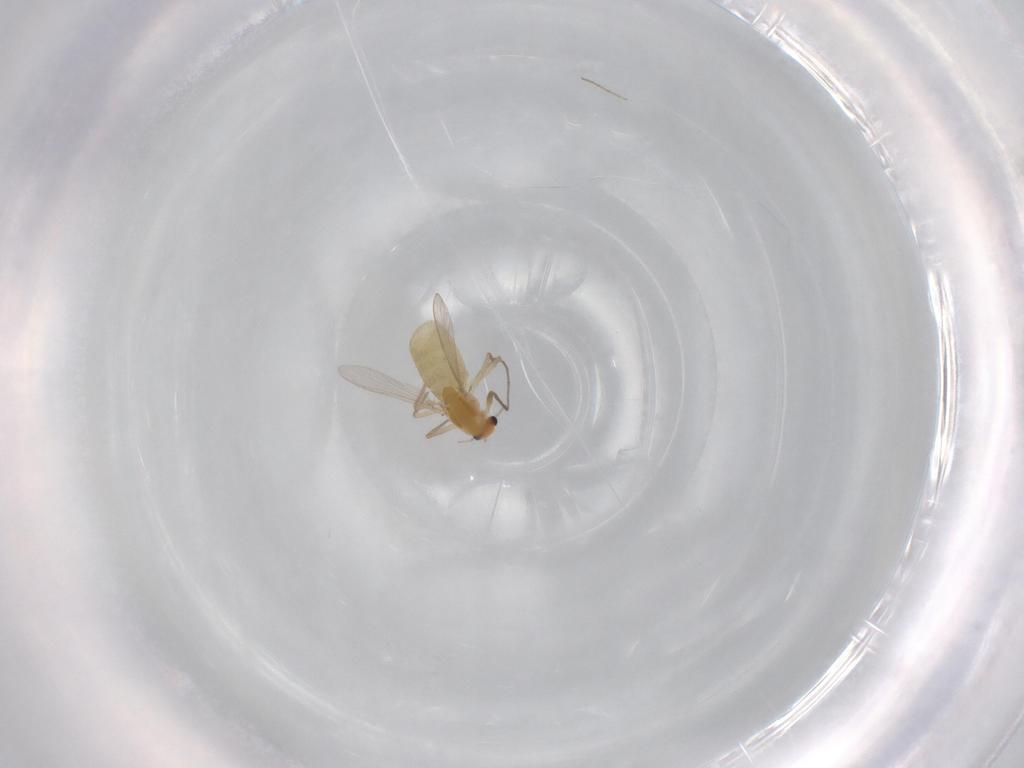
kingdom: Animalia
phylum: Arthropoda
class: Insecta
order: Diptera
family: Chironomidae
